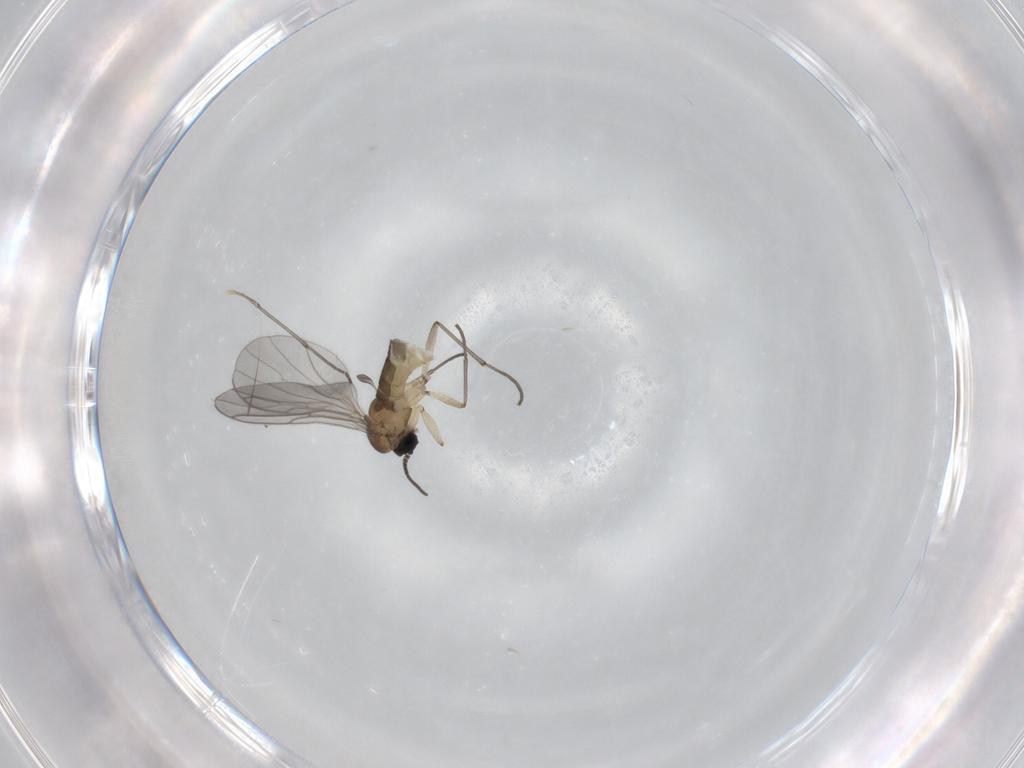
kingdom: Animalia
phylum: Arthropoda
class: Insecta
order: Diptera
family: Sciaridae
